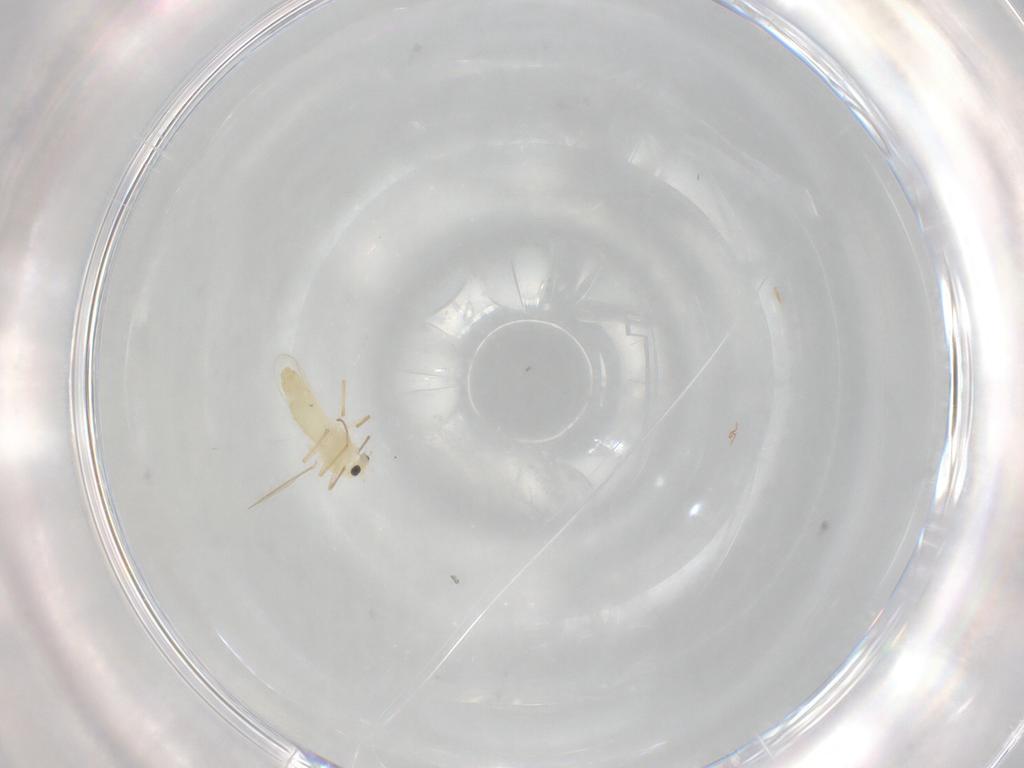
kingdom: Animalia
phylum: Arthropoda
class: Insecta
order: Diptera
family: Chironomidae
